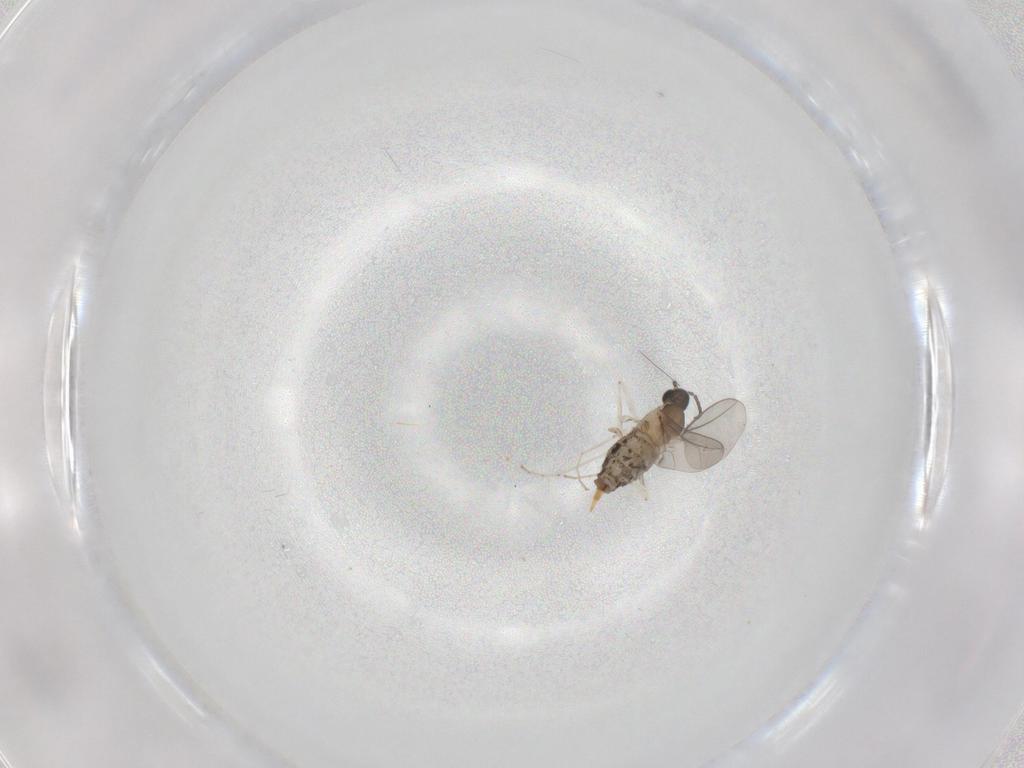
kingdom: Animalia
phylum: Arthropoda
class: Insecta
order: Diptera
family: Cecidomyiidae
